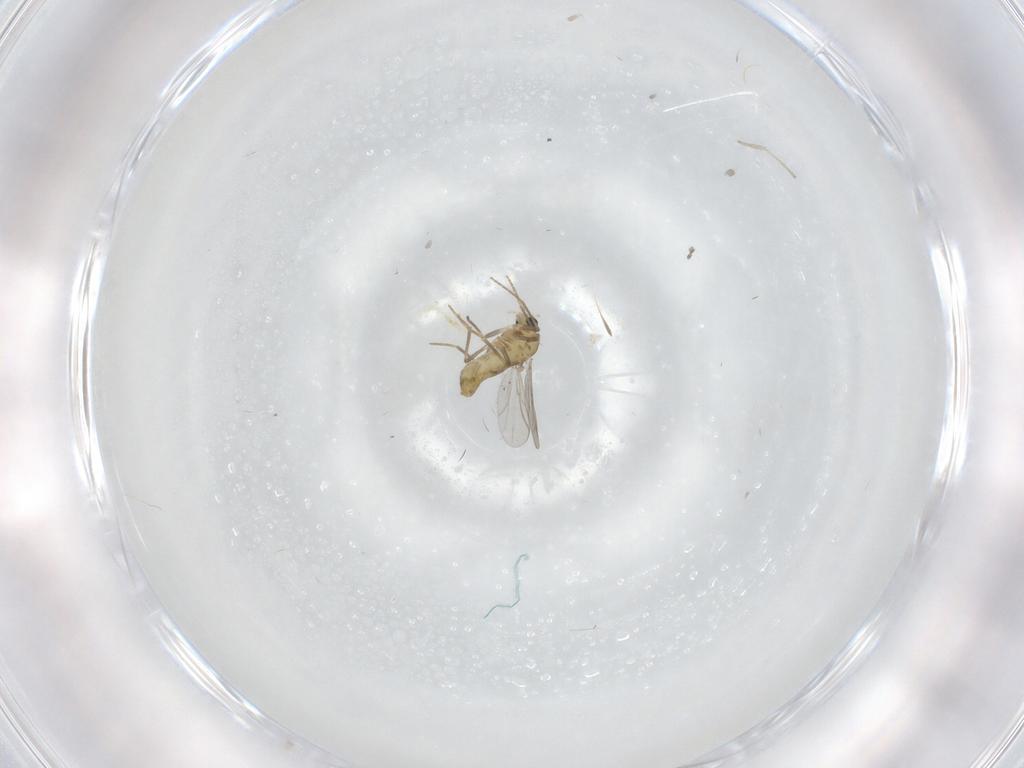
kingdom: Animalia
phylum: Arthropoda
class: Insecta
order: Diptera
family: Chironomidae
